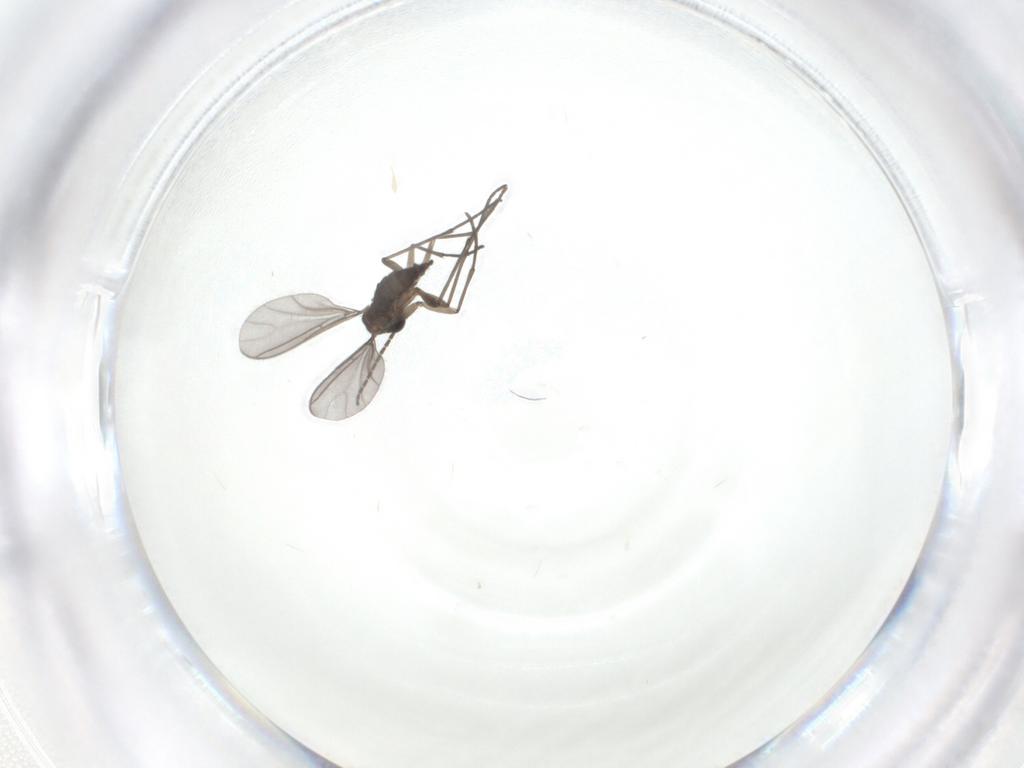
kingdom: Animalia
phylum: Arthropoda
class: Insecta
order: Diptera
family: Sciaridae
